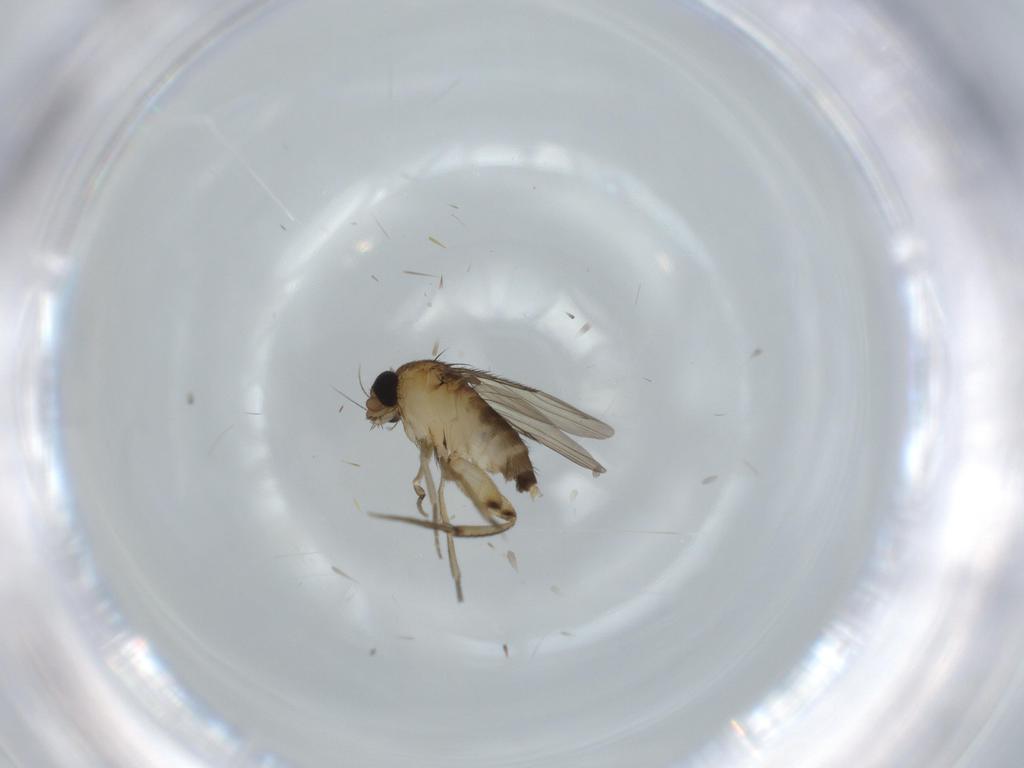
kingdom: Animalia
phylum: Arthropoda
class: Insecta
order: Diptera
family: Phoridae
